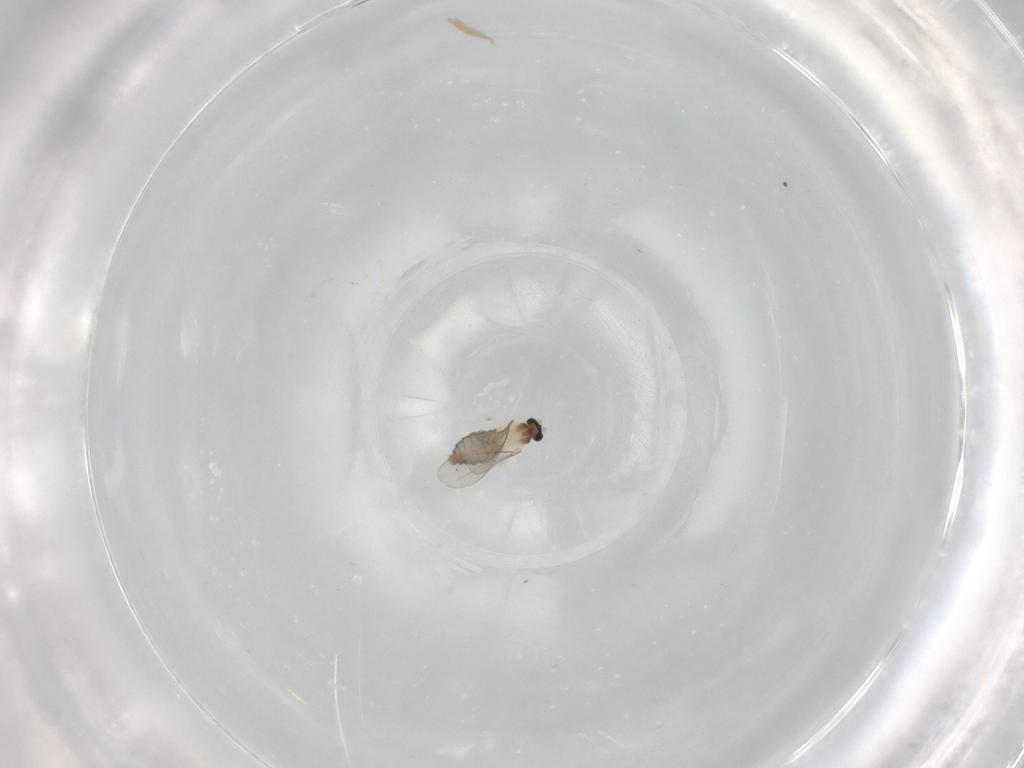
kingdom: Animalia
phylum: Arthropoda
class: Insecta
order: Diptera
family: Cecidomyiidae
